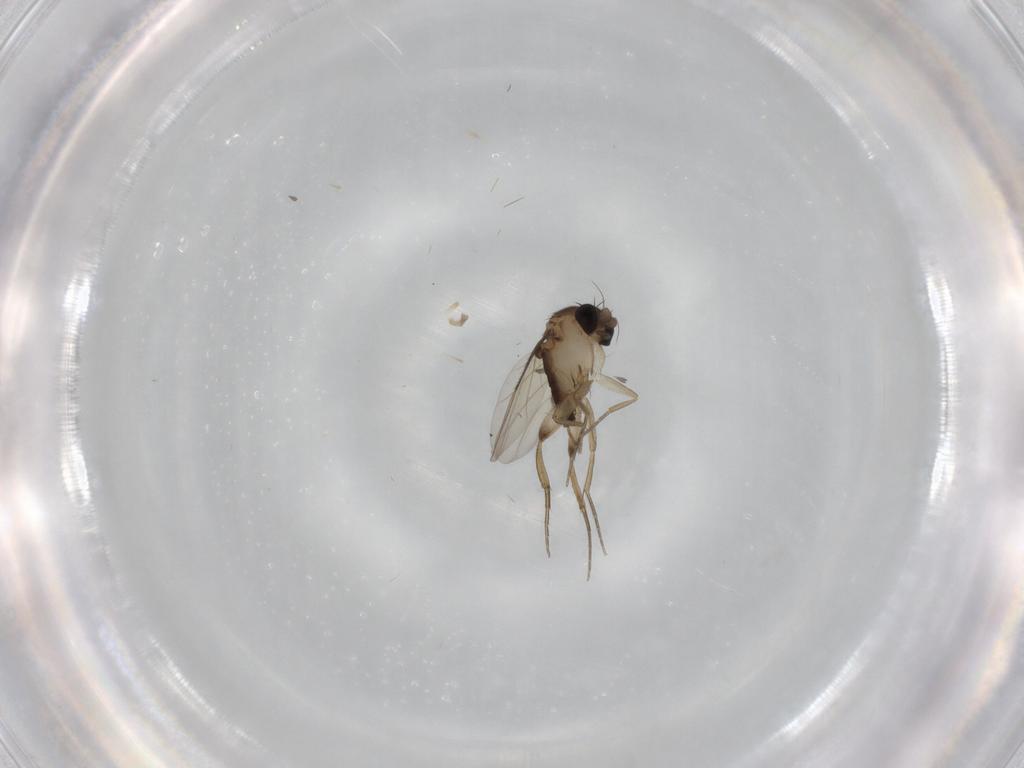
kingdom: Animalia
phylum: Arthropoda
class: Insecta
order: Diptera
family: Phoridae
